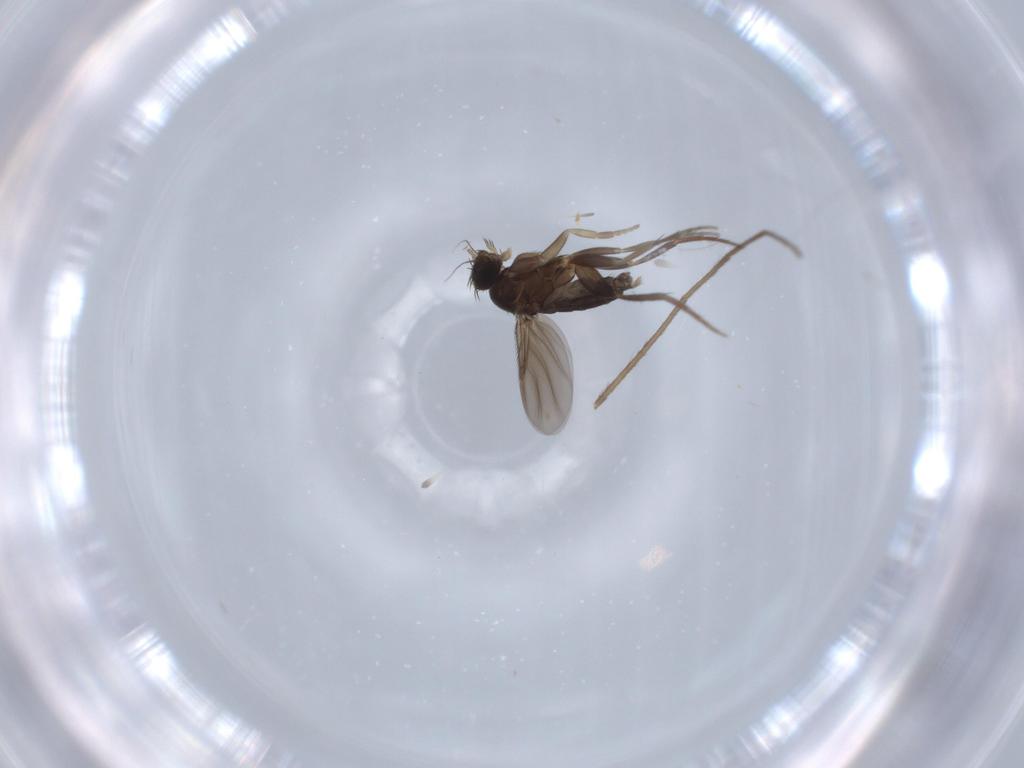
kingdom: Animalia
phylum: Arthropoda
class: Insecta
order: Diptera
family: Chironomidae
